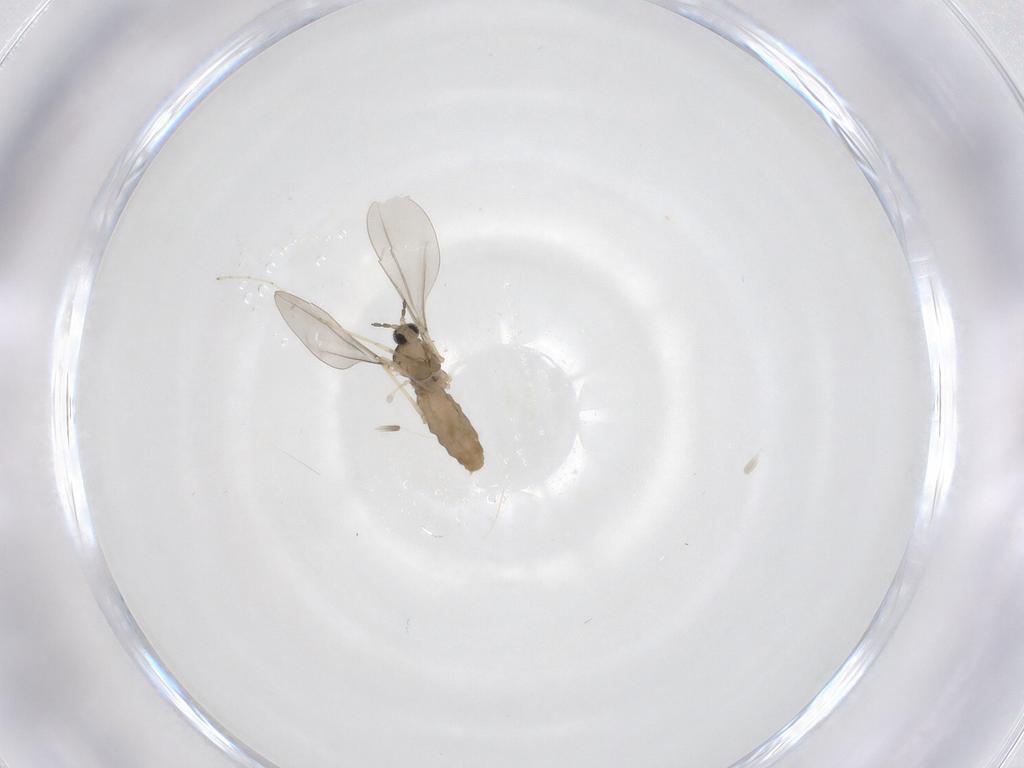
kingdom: Animalia
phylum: Arthropoda
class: Insecta
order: Diptera
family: Cecidomyiidae
